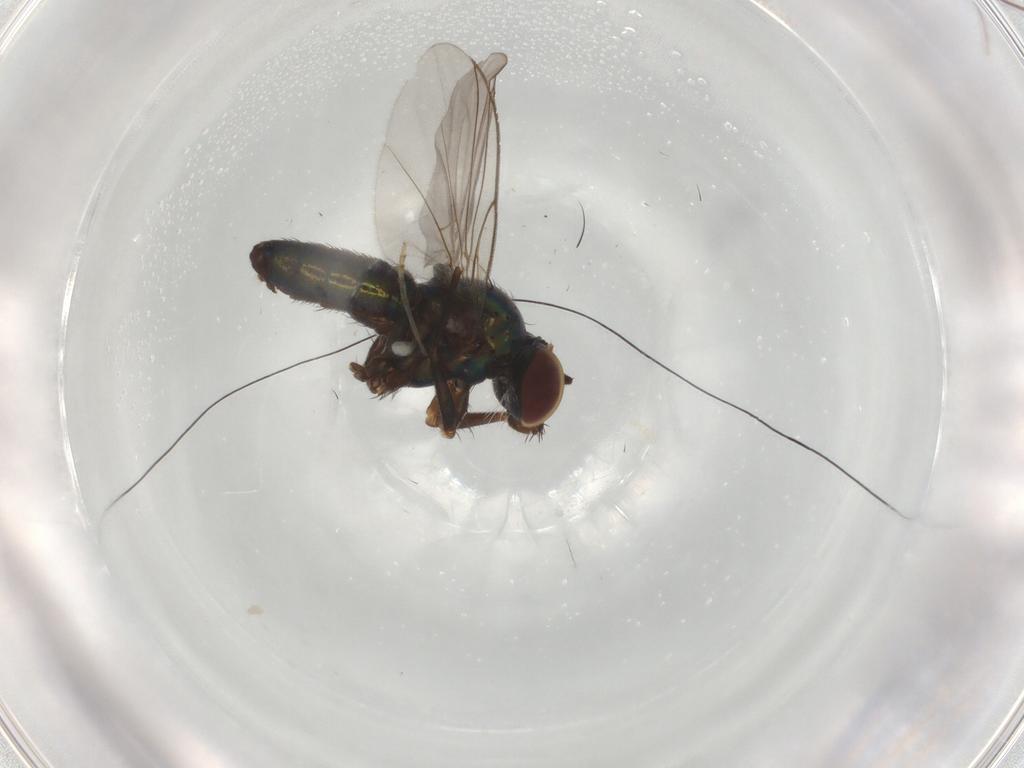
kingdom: Animalia
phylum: Arthropoda
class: Insecta
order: Diptera
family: Dolichopodidae
